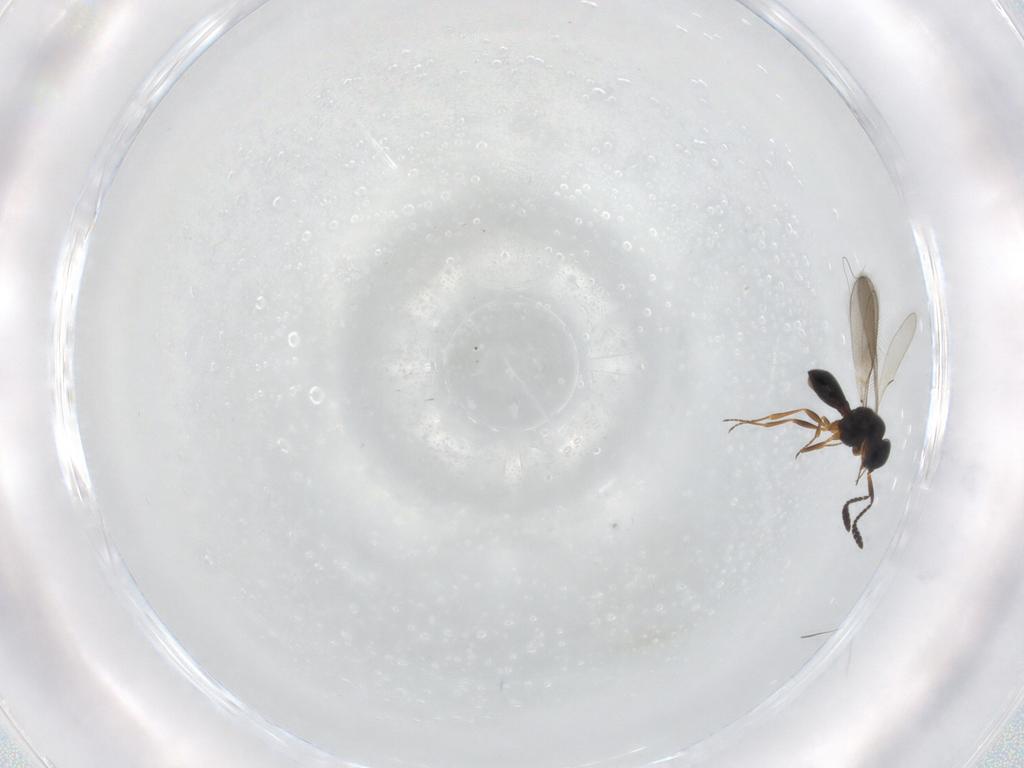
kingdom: Animalia
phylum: Arthropoda
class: Insecta
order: Hymenoptera
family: Scelionidae
